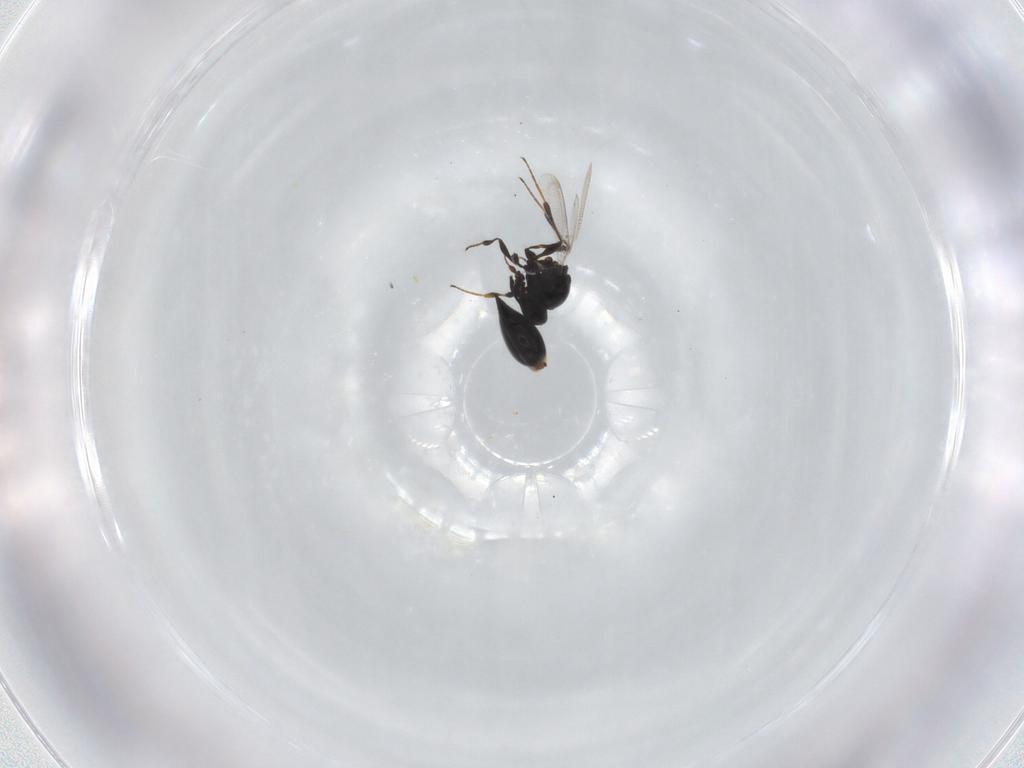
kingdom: Animalia
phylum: Arthropoda
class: Insecta
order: Hymenoptera
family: Platygastridae
